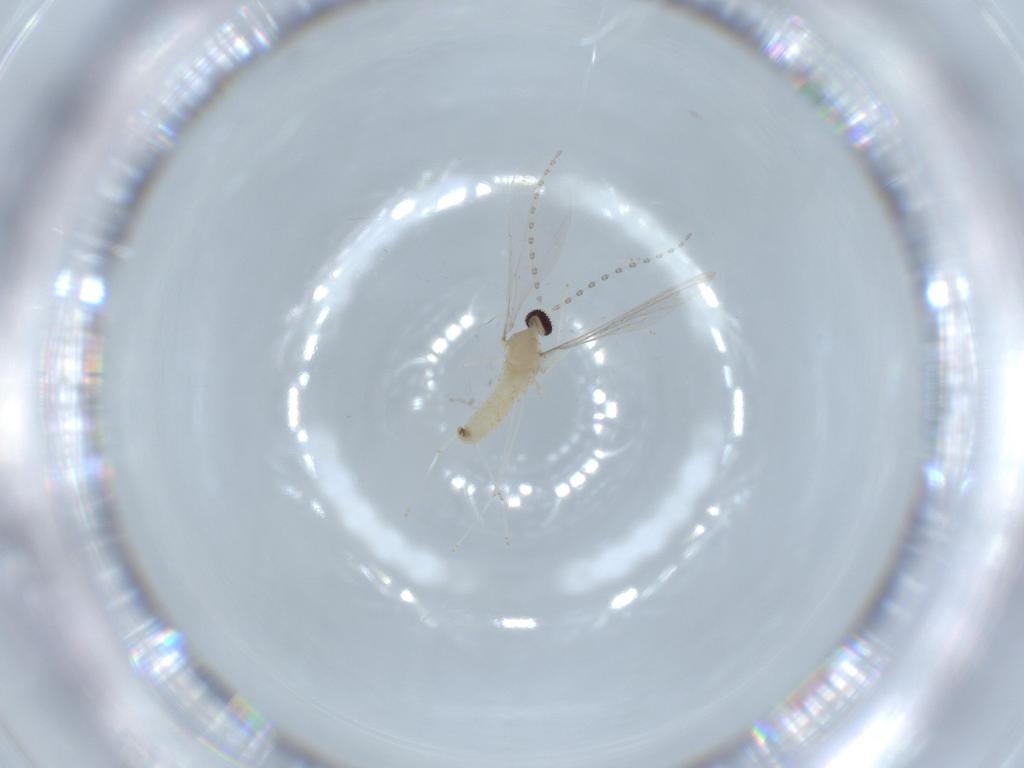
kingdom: Animalia
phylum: Arthropoda
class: Insecta
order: Diptera
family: Cecidomyiidae
